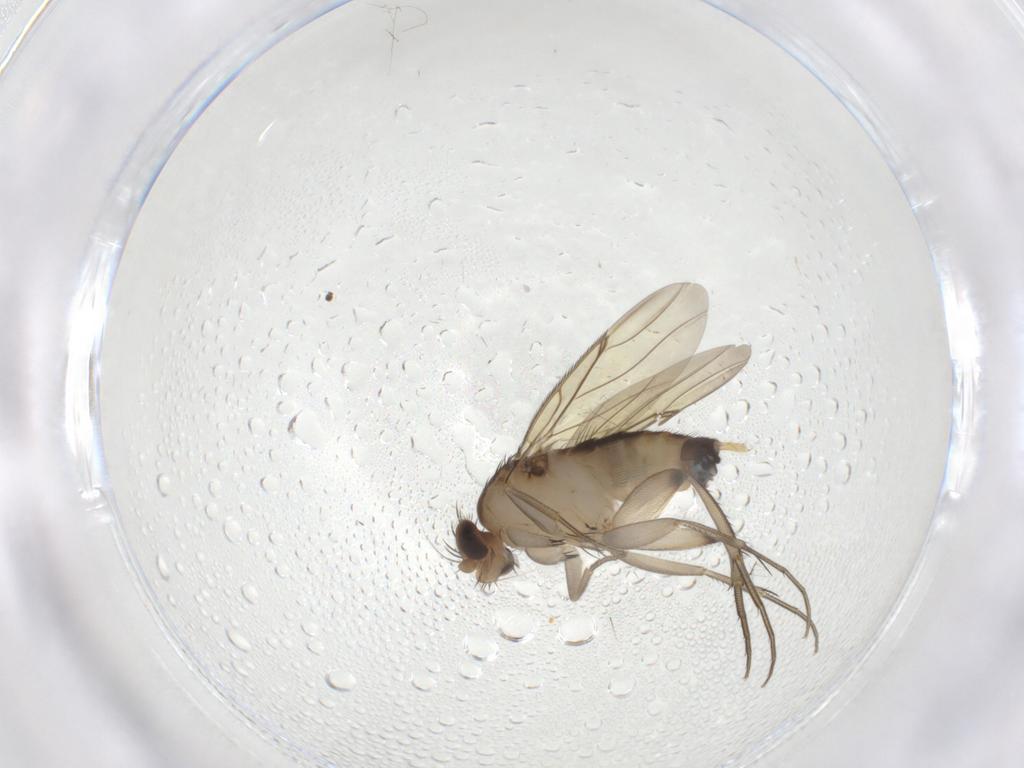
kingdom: Animalia
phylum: Arthropoda
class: Insecta
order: Diptera
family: Phoridae
